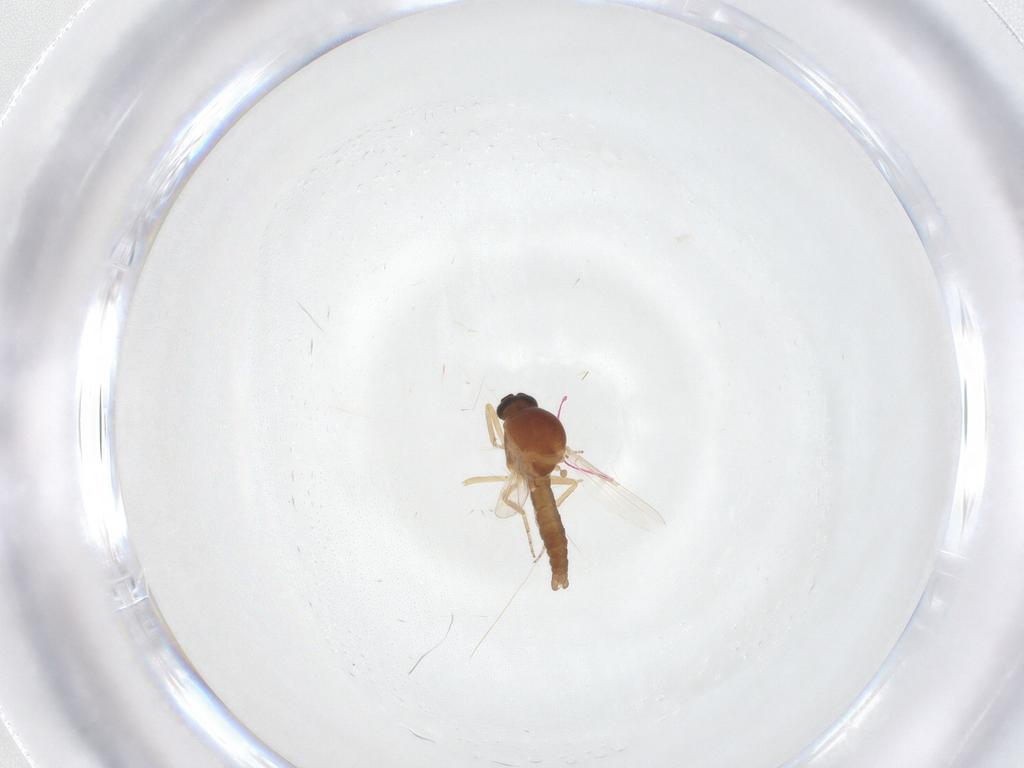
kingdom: Animalia
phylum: Arthropoda
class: Insecta
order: Diptera
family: Ceratopogonidae
